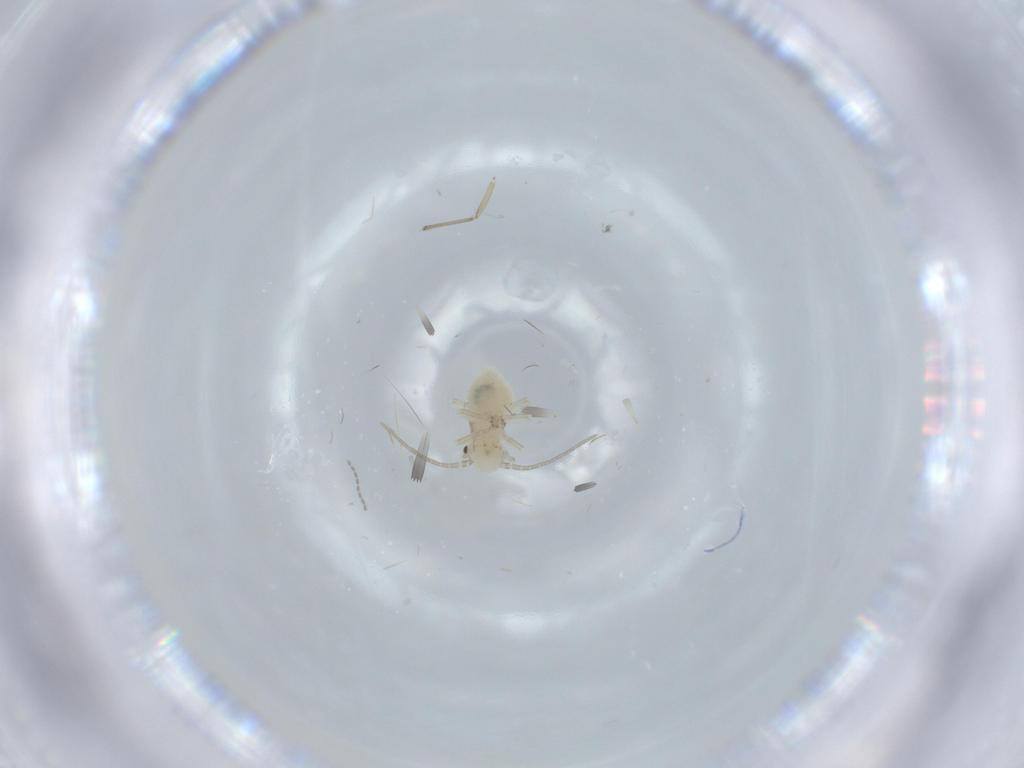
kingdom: Animalia
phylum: Arthropoda
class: Insecta
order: Psocodea
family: Caeciliusidae
